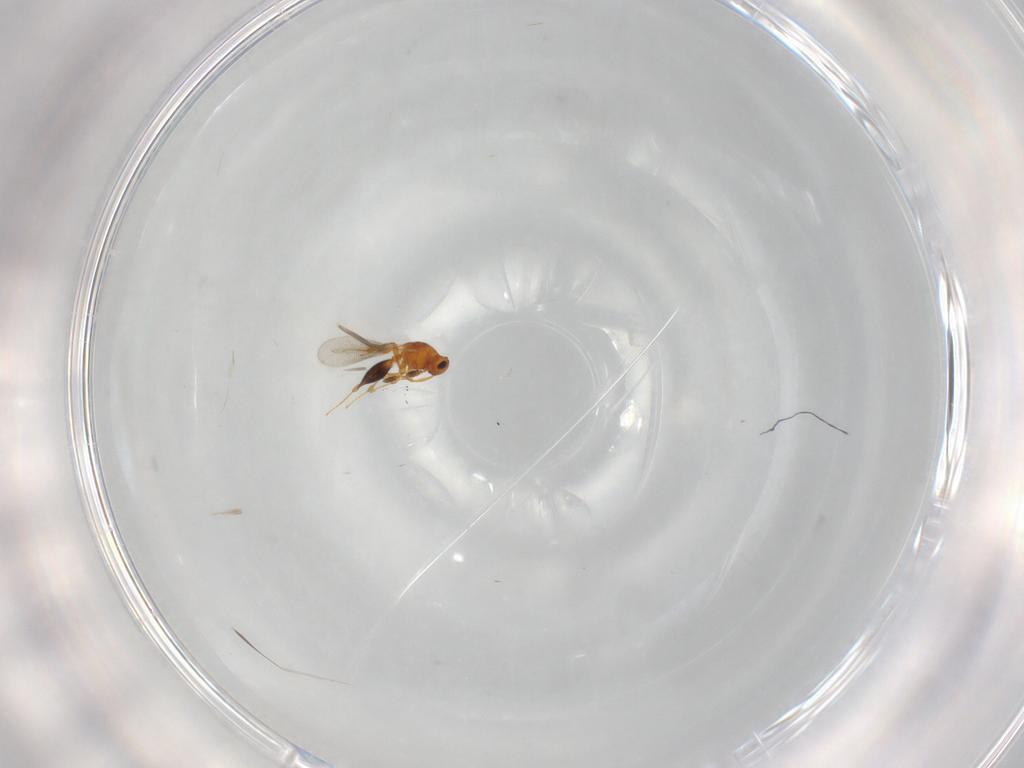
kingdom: Animalia
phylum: Arthropoda
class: Insecta
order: Hymenoptera
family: Platygastridae
